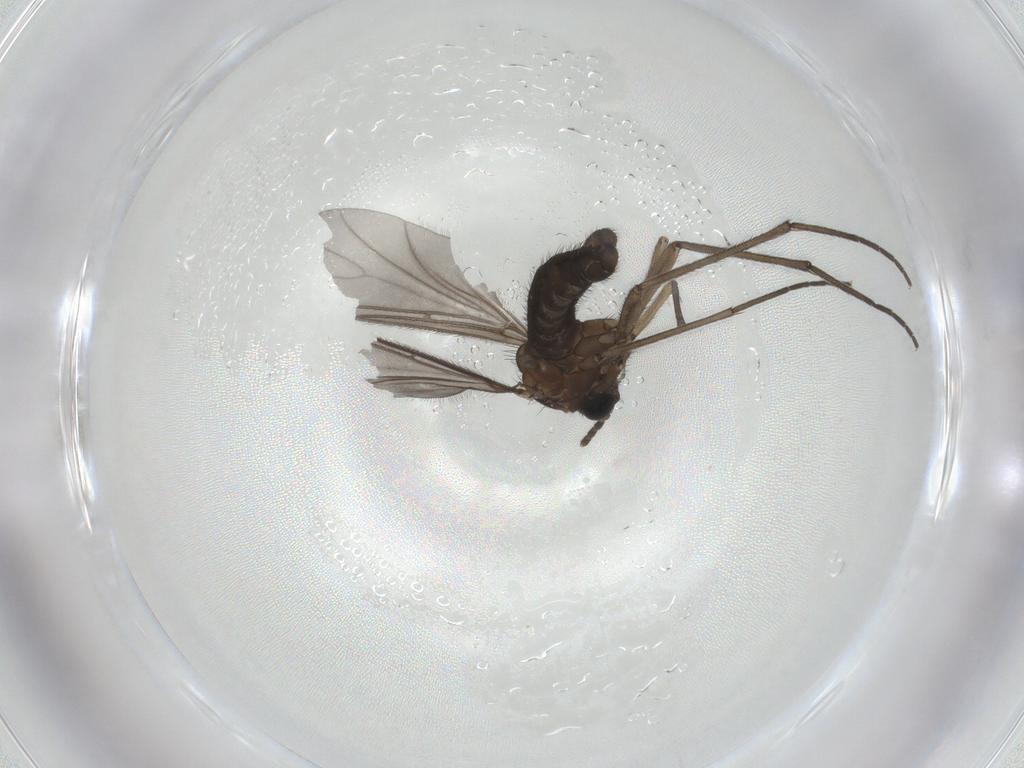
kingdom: Animalia
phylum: Arthropoda
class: Insecta
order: Diptera
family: Sciaridae
